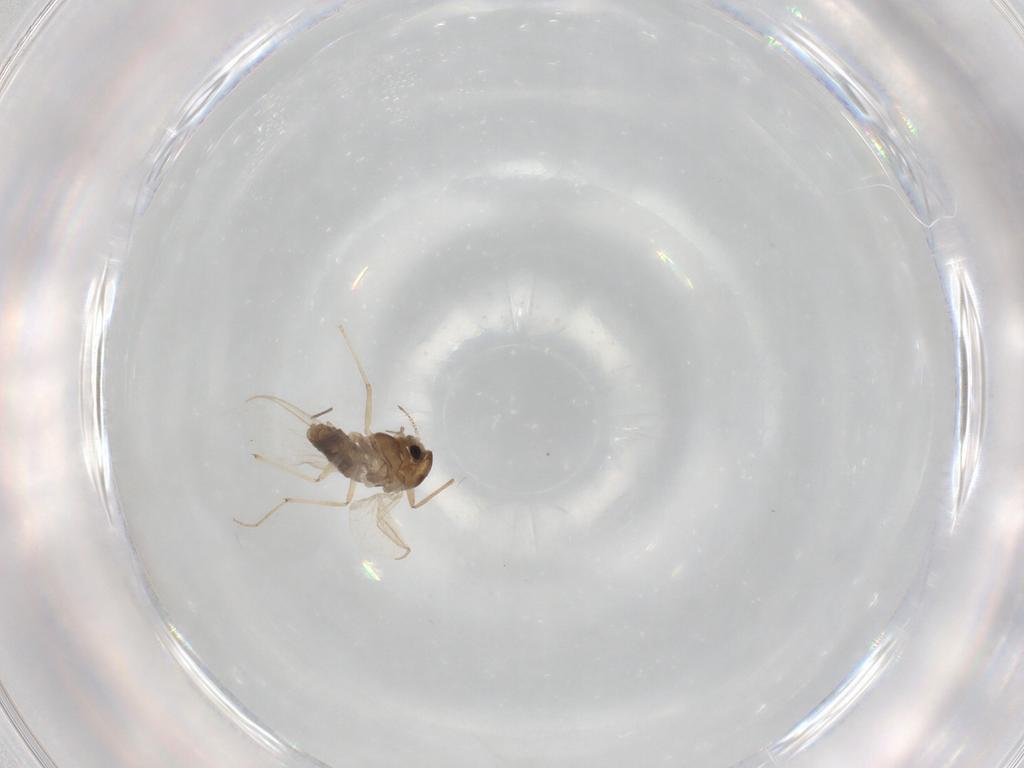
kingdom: Animalia
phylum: Arthropoda
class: Insecta
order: Diptera
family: Chironomidae
